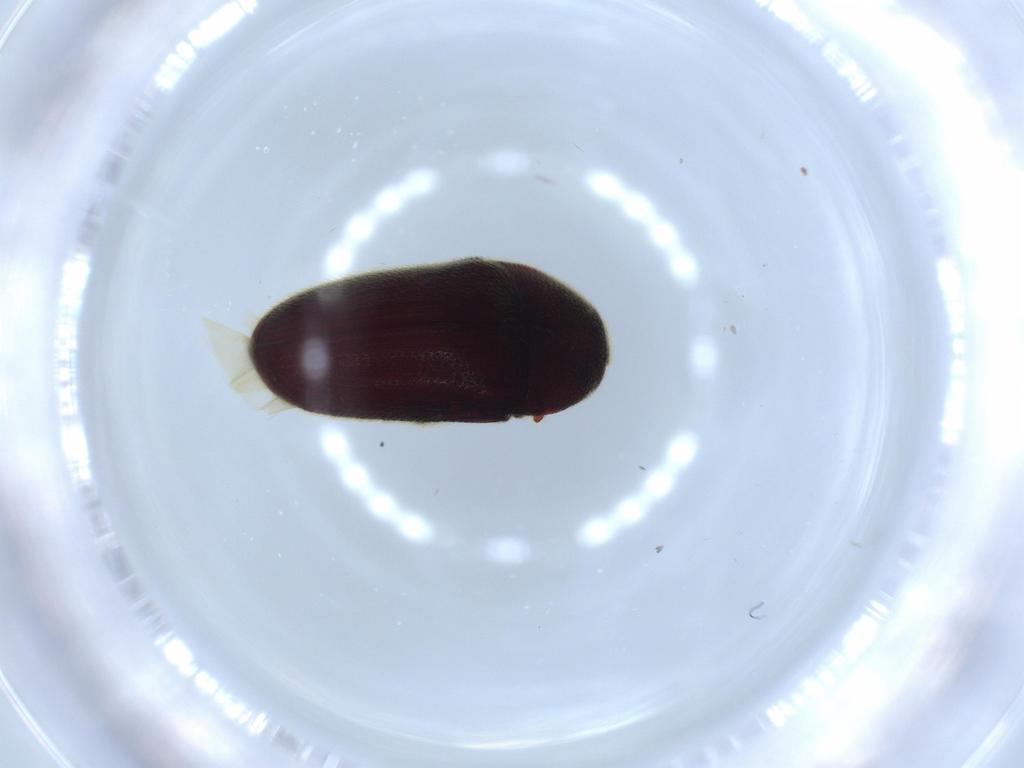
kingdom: Animalia
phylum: Arthropoda
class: Insecta
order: Coleoptera
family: Throscidae
